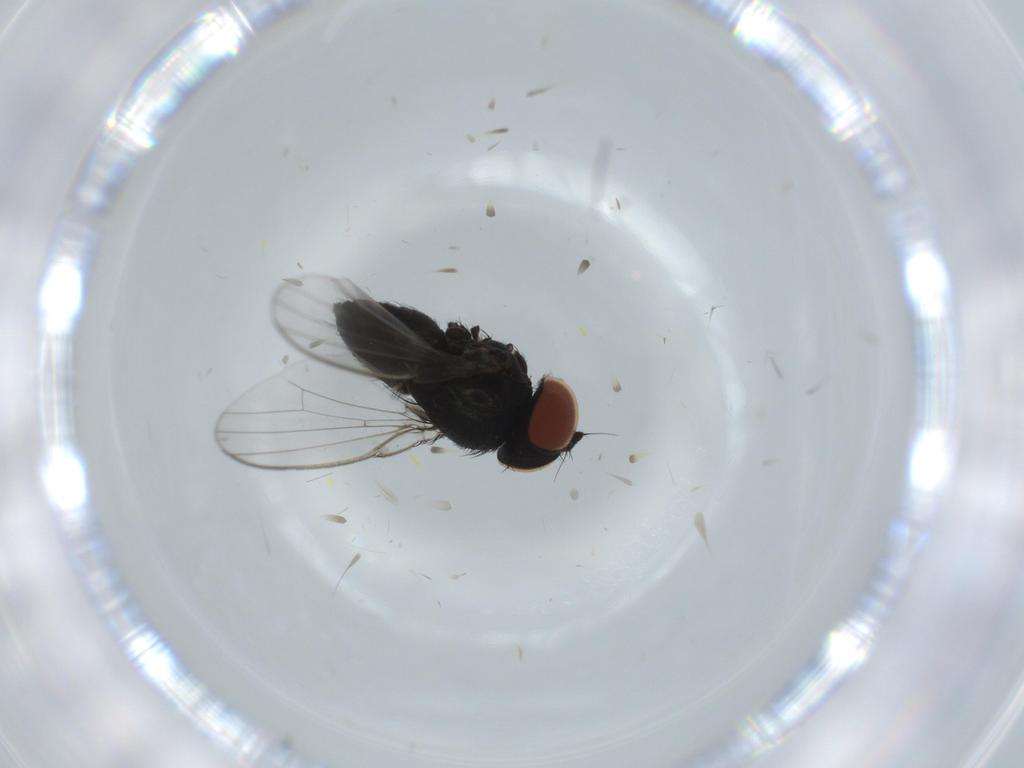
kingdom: Animalia
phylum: Arthropoda
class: Insecta
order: Diptera
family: Milichiidae
